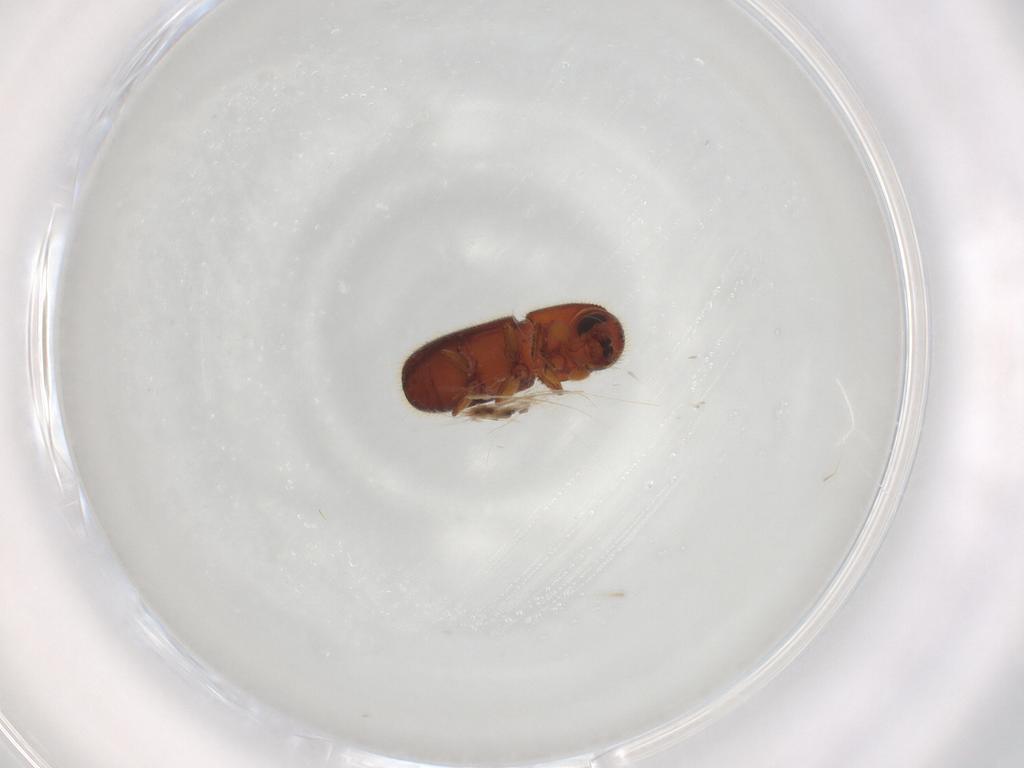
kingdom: Animalia
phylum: Arthropoda
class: Insecta
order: Coleoptera
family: Curculionidae
